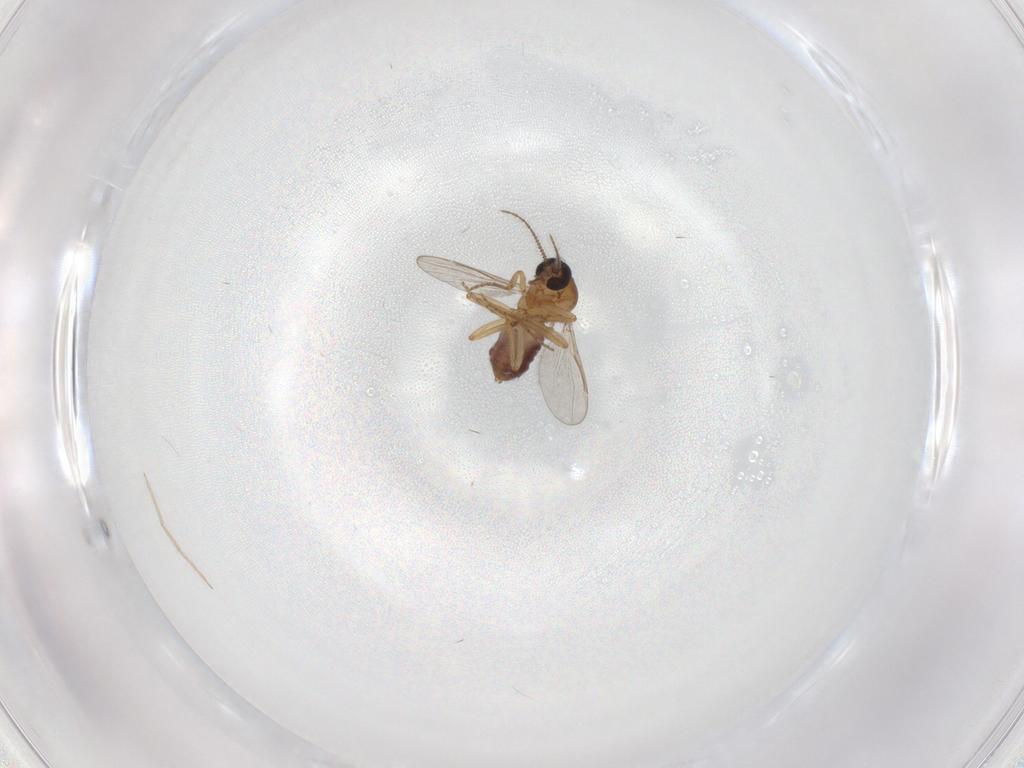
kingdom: Animalia
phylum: Arthropoda
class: Insecta
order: Diptera
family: Ceratopogonidae
